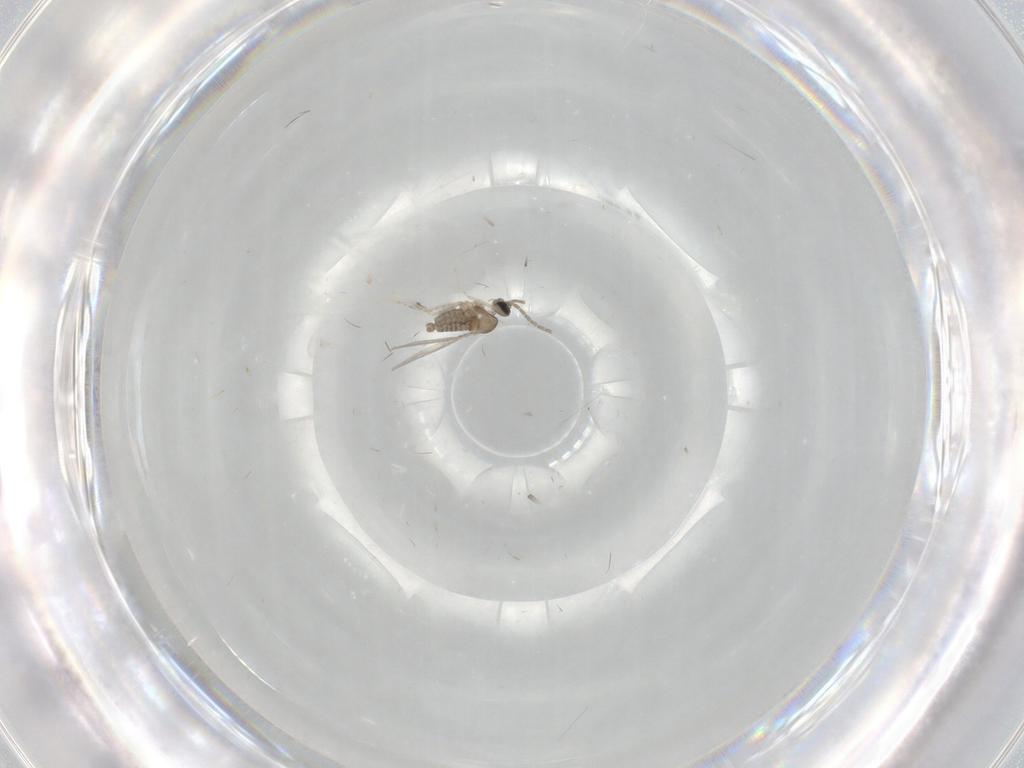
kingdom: Animalia
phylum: Arthropoda
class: Insecta
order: Diptera
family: Cecidomyiidae
